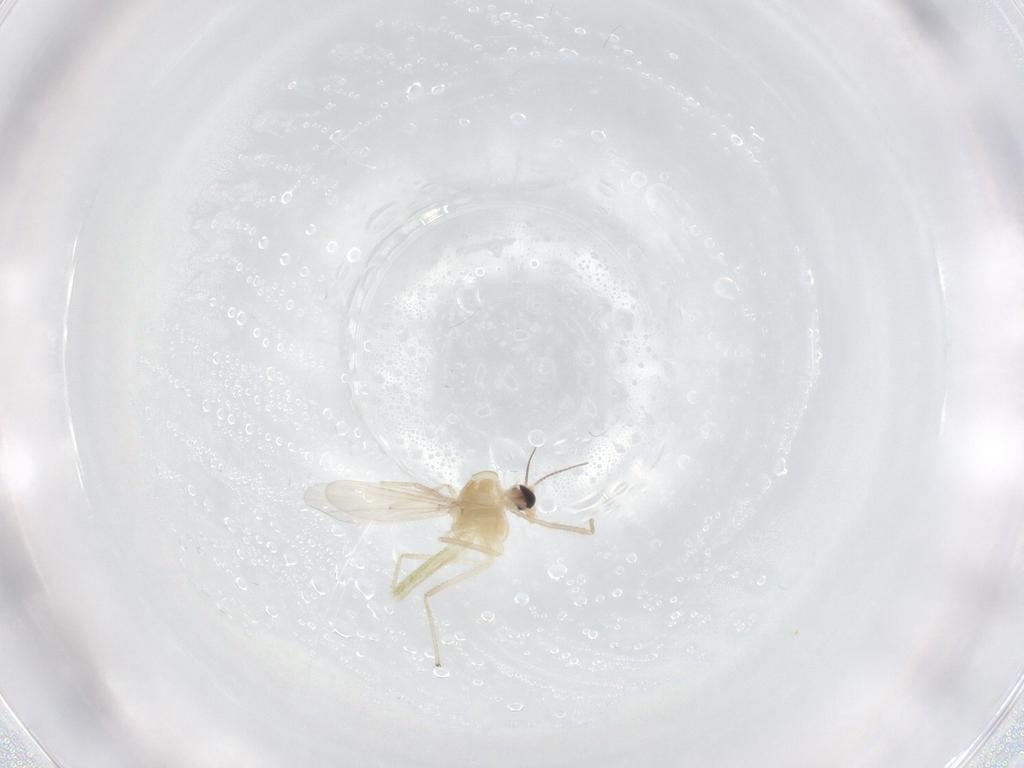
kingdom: Animalia
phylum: Arthropoda
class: Insecta
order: Diptera
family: Chironomidae
